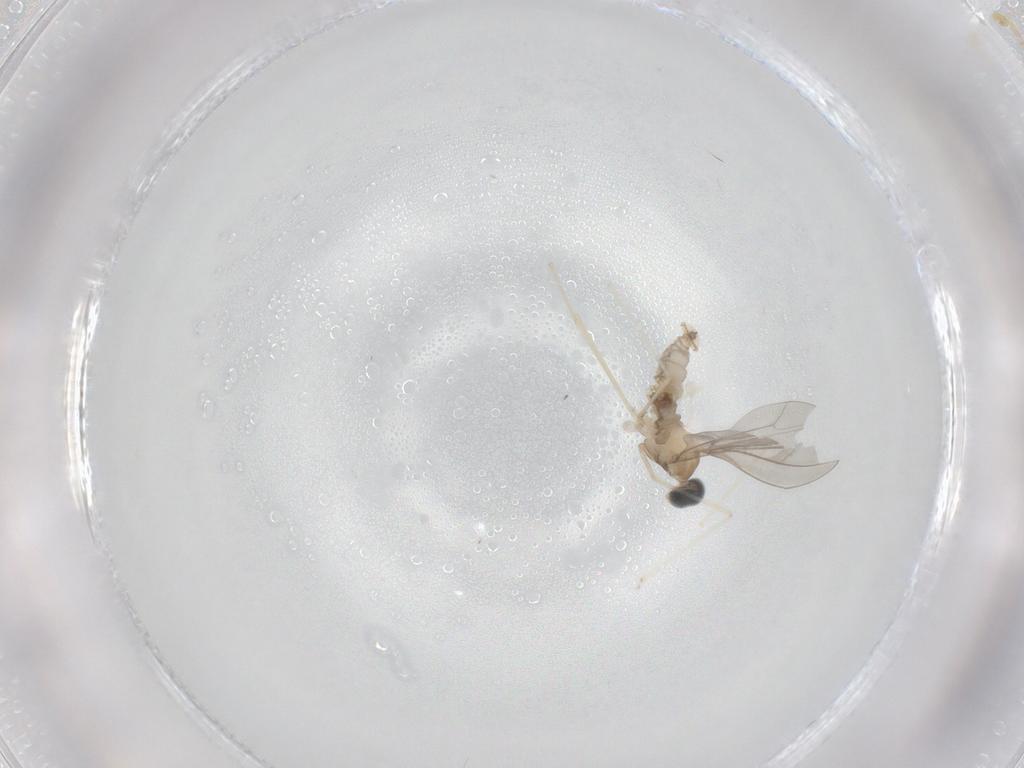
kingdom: Animalia
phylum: Arthropoda
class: Insecta
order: Diptera
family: Cecidomyiidae
